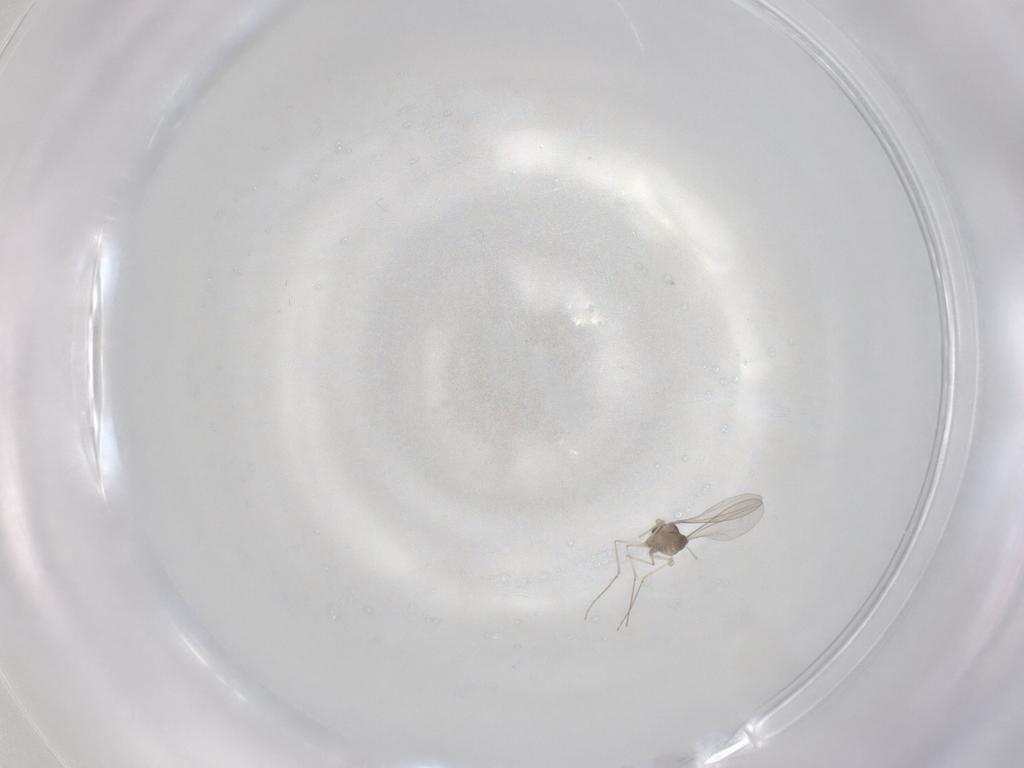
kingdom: Animalia
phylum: Arthropoda
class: Insecta
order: Diptera
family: Cecidomyiidae
